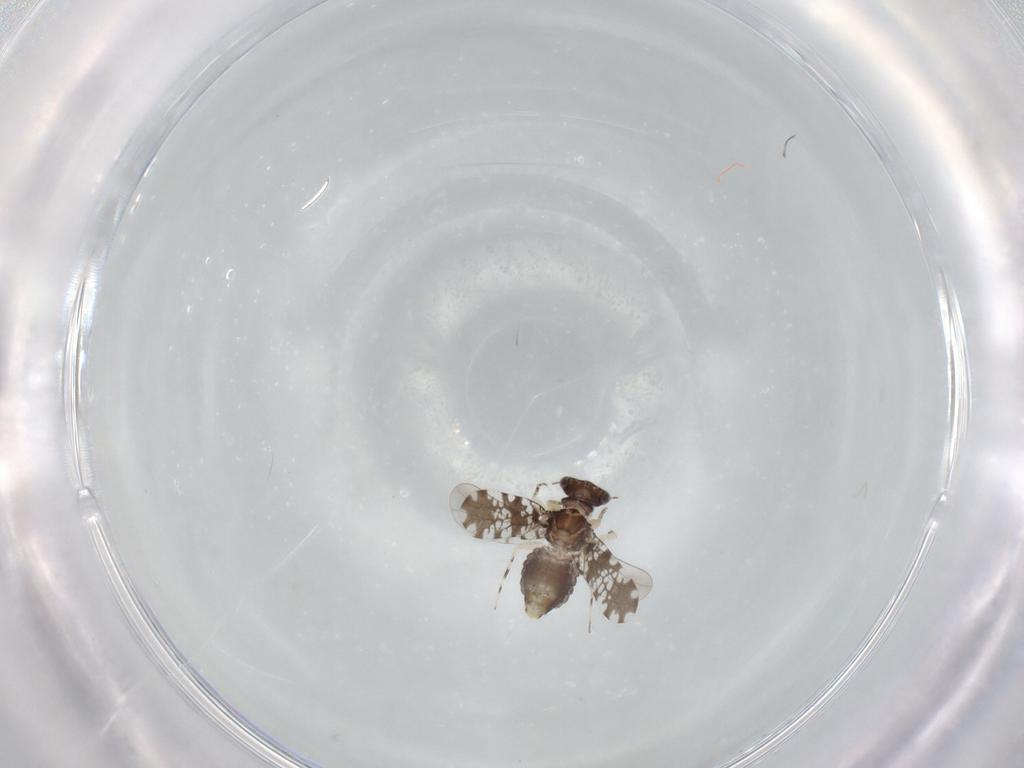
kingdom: Animalia
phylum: Arthropoda
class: Insecta
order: Psocodea
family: Psoquillidae
